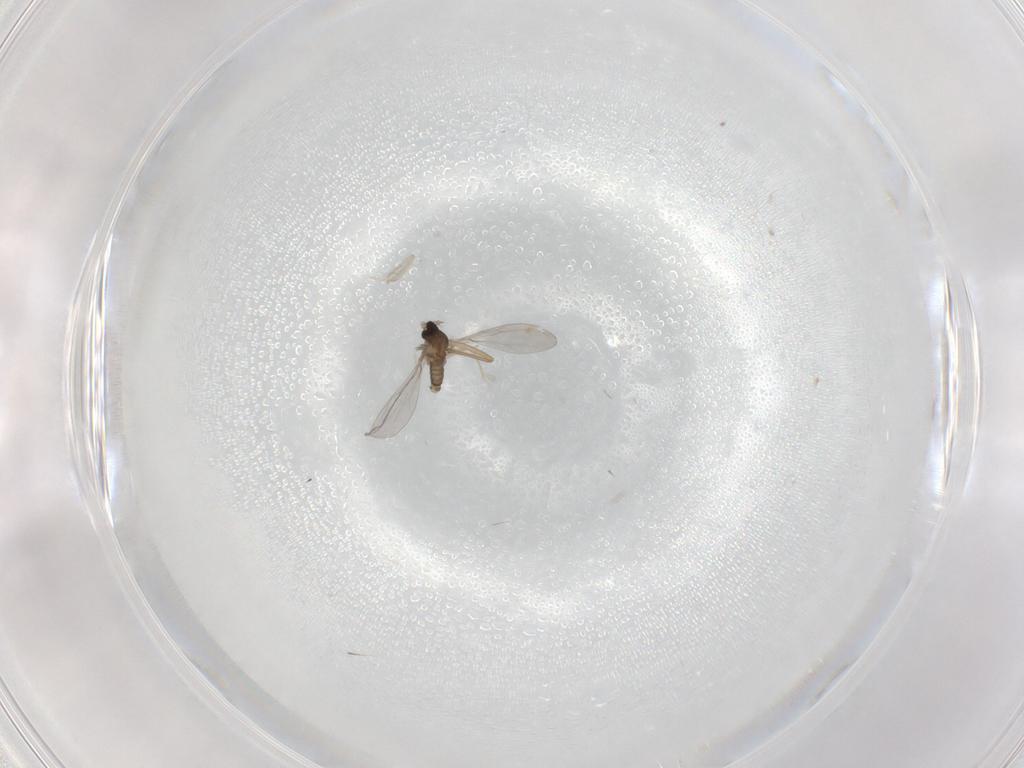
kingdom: Animalia
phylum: Arthropoda
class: Insecta
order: Diptera
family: Cecidomyiidae
